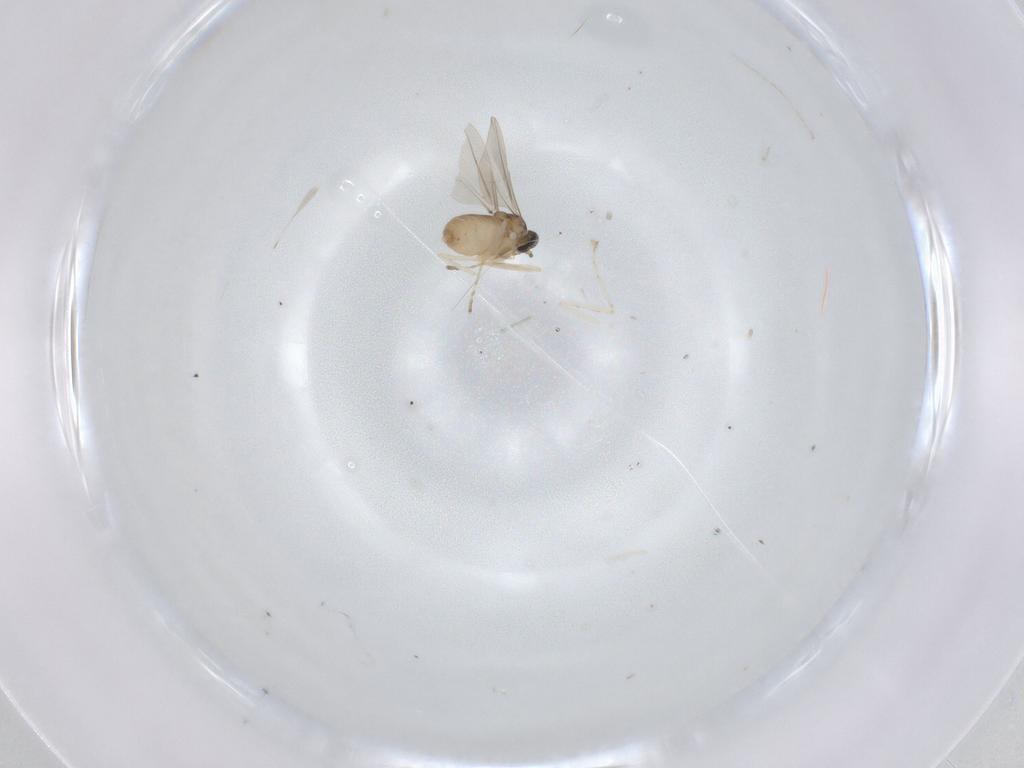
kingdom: Animalia
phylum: Arthropoda
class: Insecta
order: Diptera
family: Cecidomyiidae
